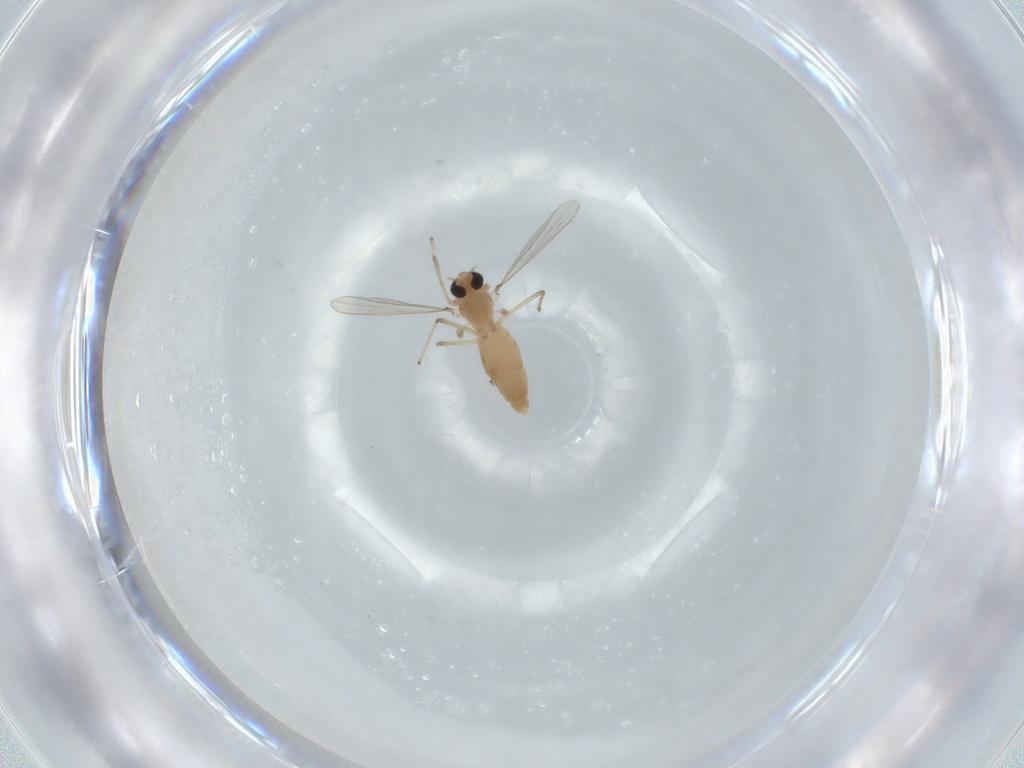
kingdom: Animalia
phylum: Arthropoda
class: Insecta
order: Diptera
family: Chironomidae
